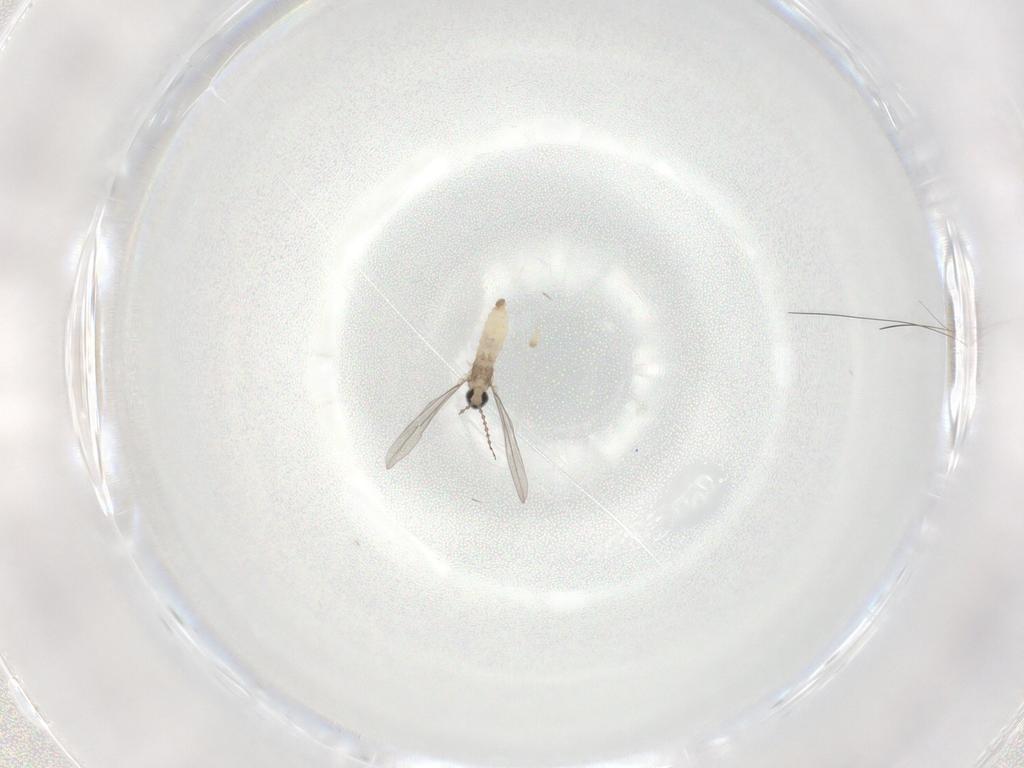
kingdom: Animalia
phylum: Arthropoda
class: Insecta
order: Diptera
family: Cecidomyiidae
